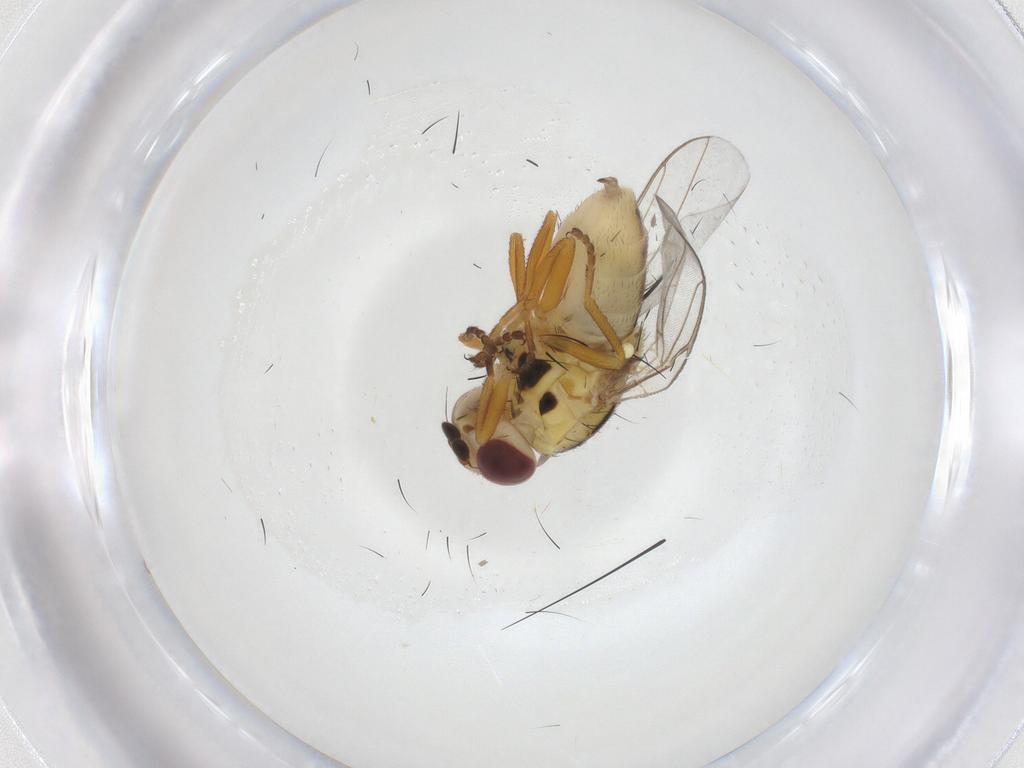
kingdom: Animalia
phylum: Arthropoda
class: Insecta
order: Diptera
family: Chloropidae
